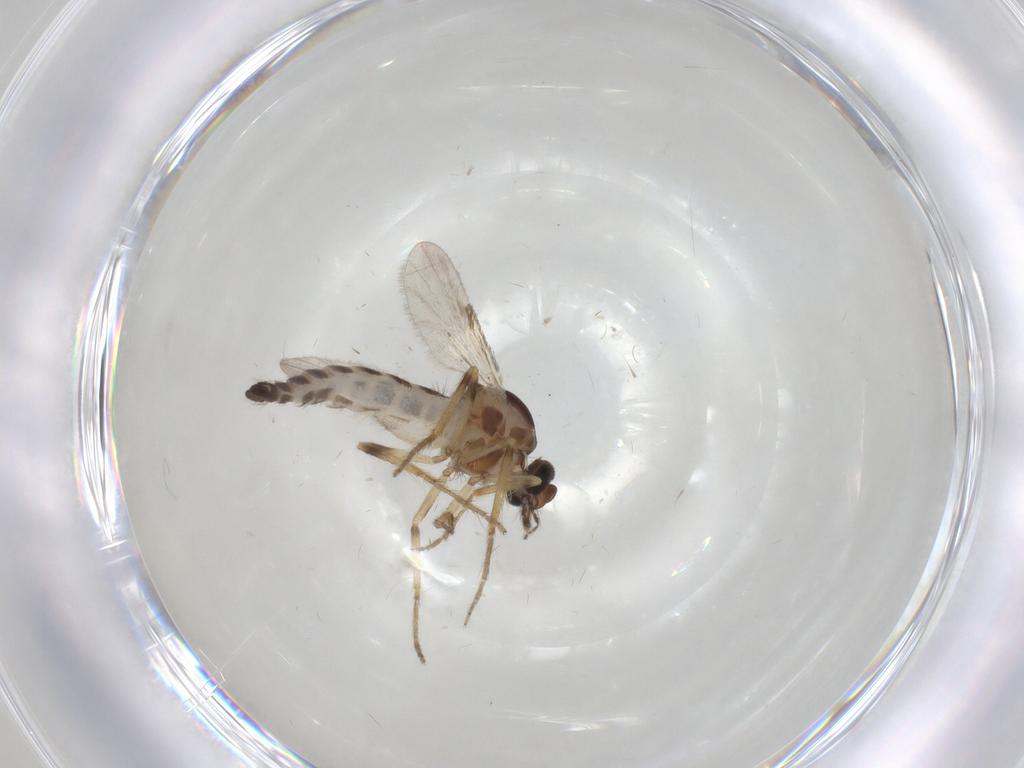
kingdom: Animalia
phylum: Arthropoda
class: Insecta
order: Diptera
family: Ceratopogonidae
